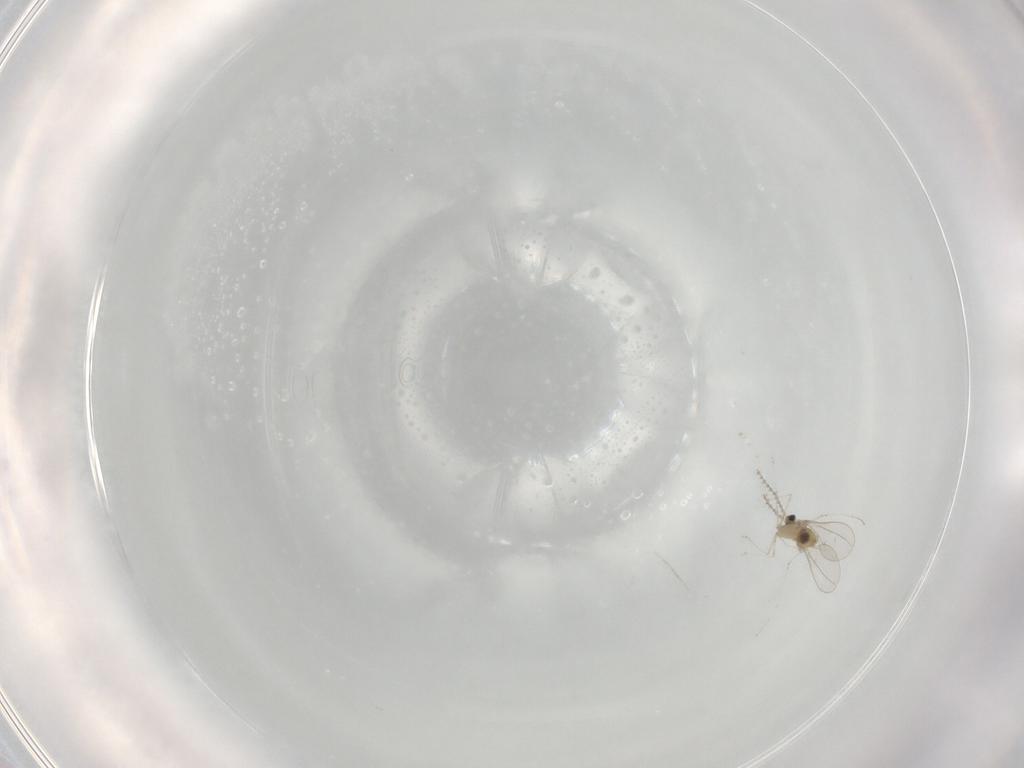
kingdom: Animalia
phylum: Arthropoda
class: Insecta
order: Diptera
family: Cecidomyiidae
